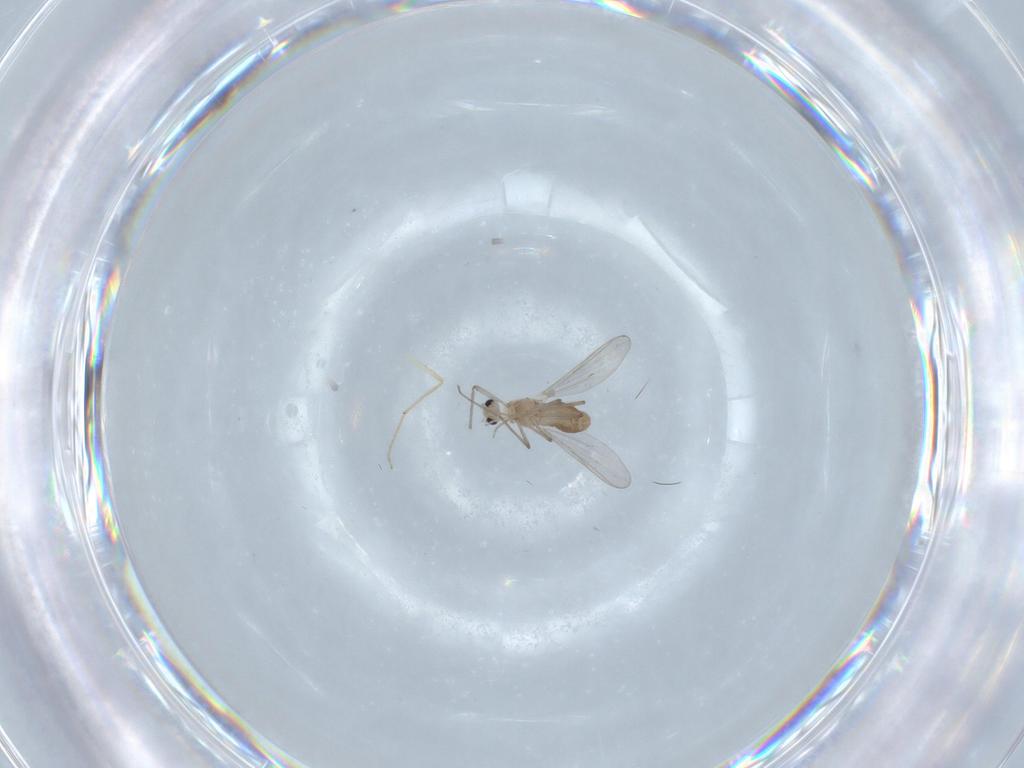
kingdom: Animalia
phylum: Arthropoda
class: Insecta
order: Diptera
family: Chironomidae
